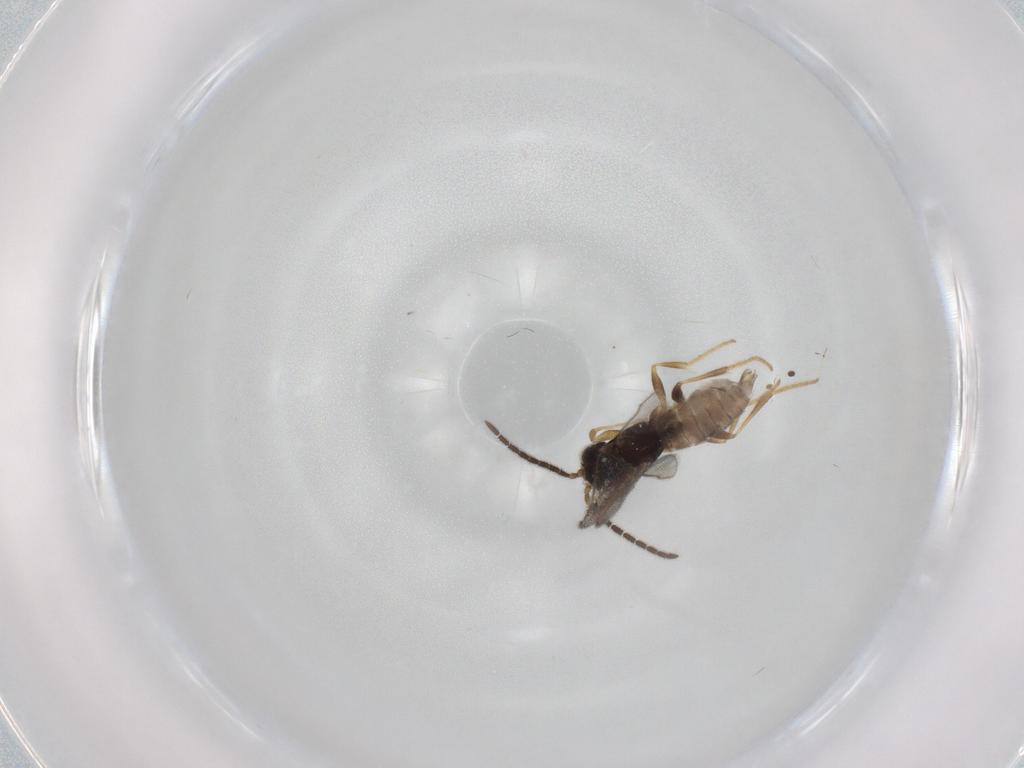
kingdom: Animalia
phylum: Arthropoda
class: Insecta
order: Hymenoptera
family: Dryinidae
